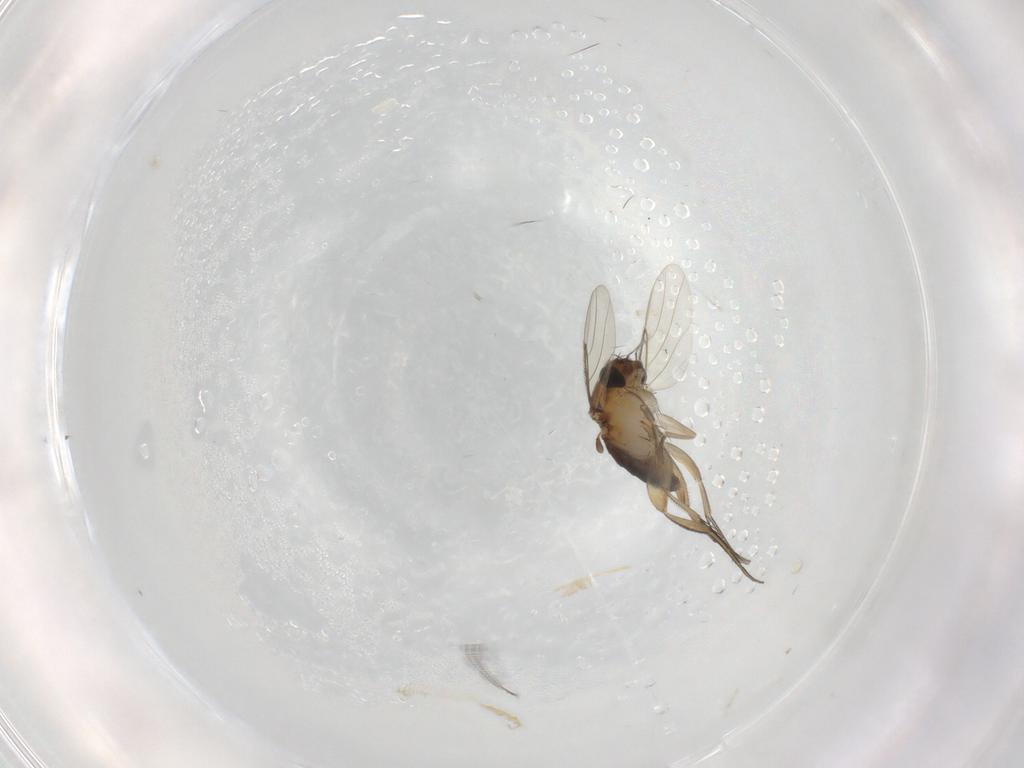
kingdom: Animalia
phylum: Arthropoda
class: Insecta
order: Diptera
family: Phoridae
